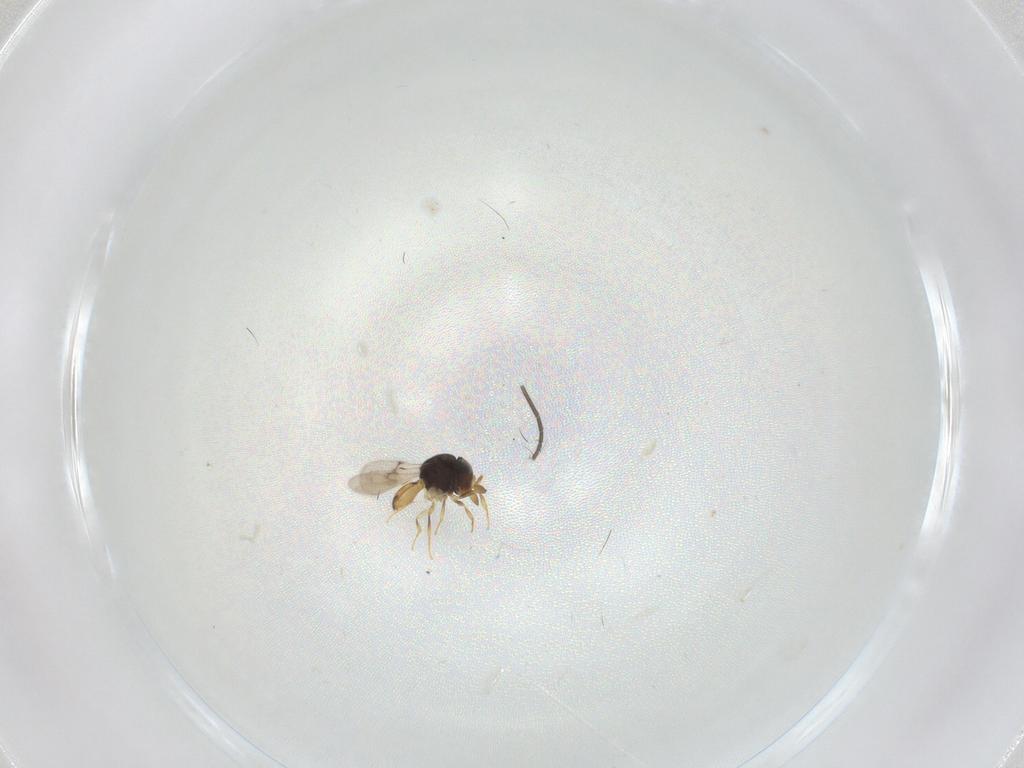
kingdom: Animalia
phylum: Arthropoda
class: Insecta
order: Hymenoptera
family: Scelionidae
